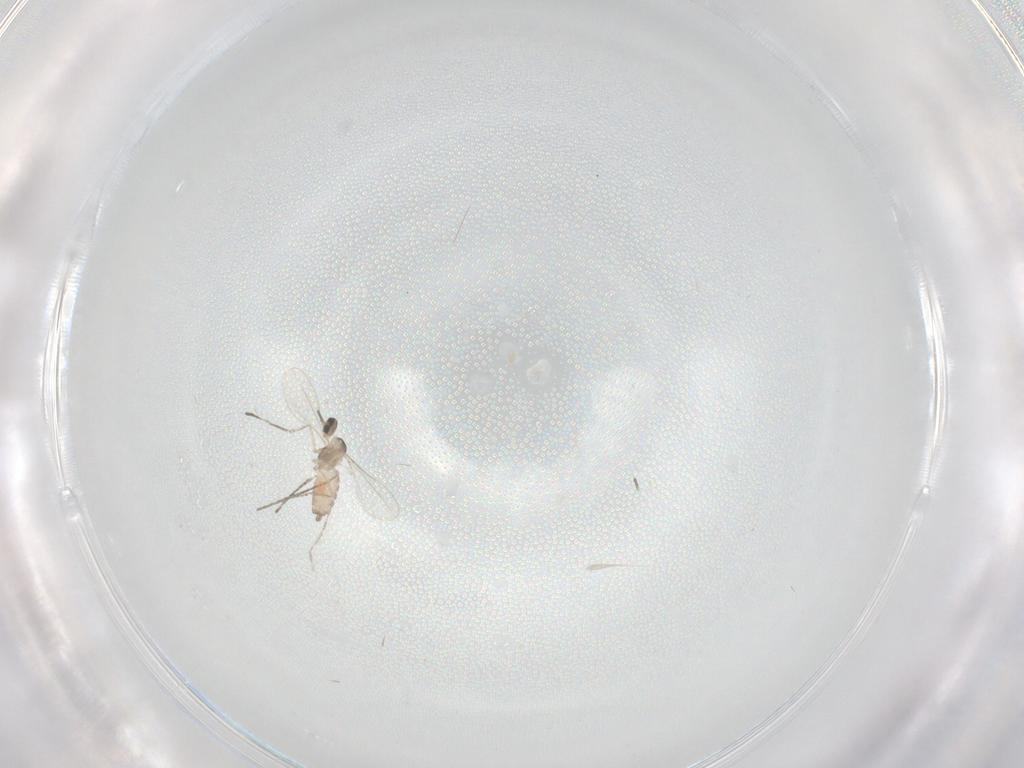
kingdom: Animalia
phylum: Arthropoda
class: Insecta
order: Diptera
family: Cecidomyiidae
